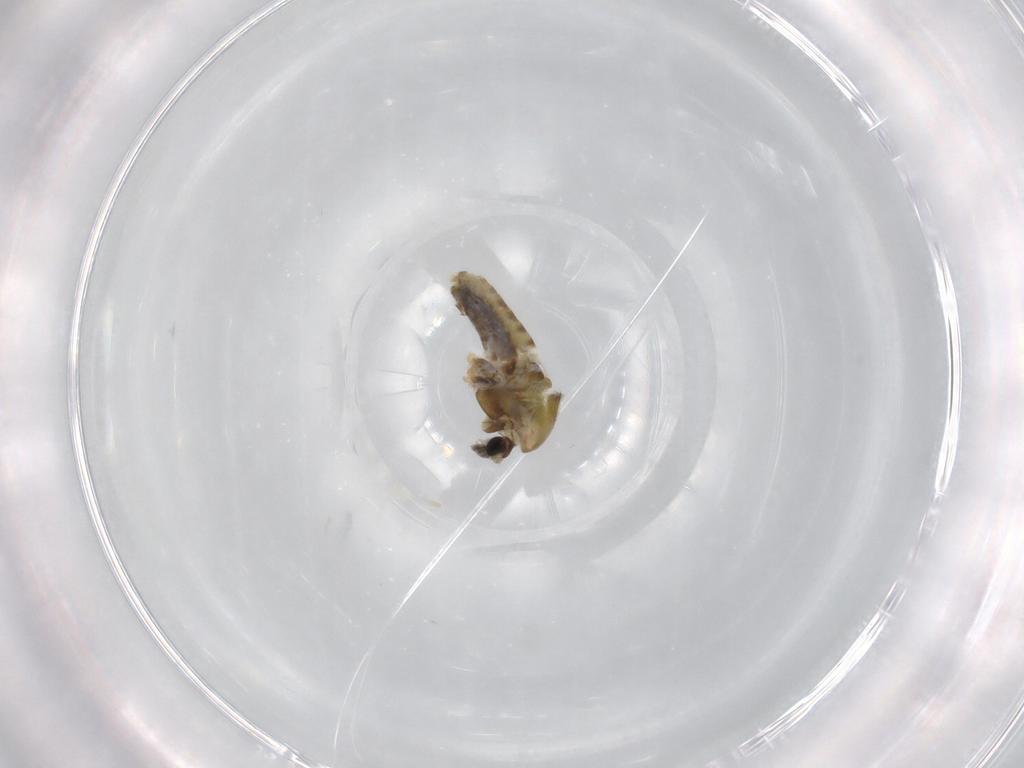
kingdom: Animalia
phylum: Arthropoda
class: Insecta
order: Diptera
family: Chironomidae
